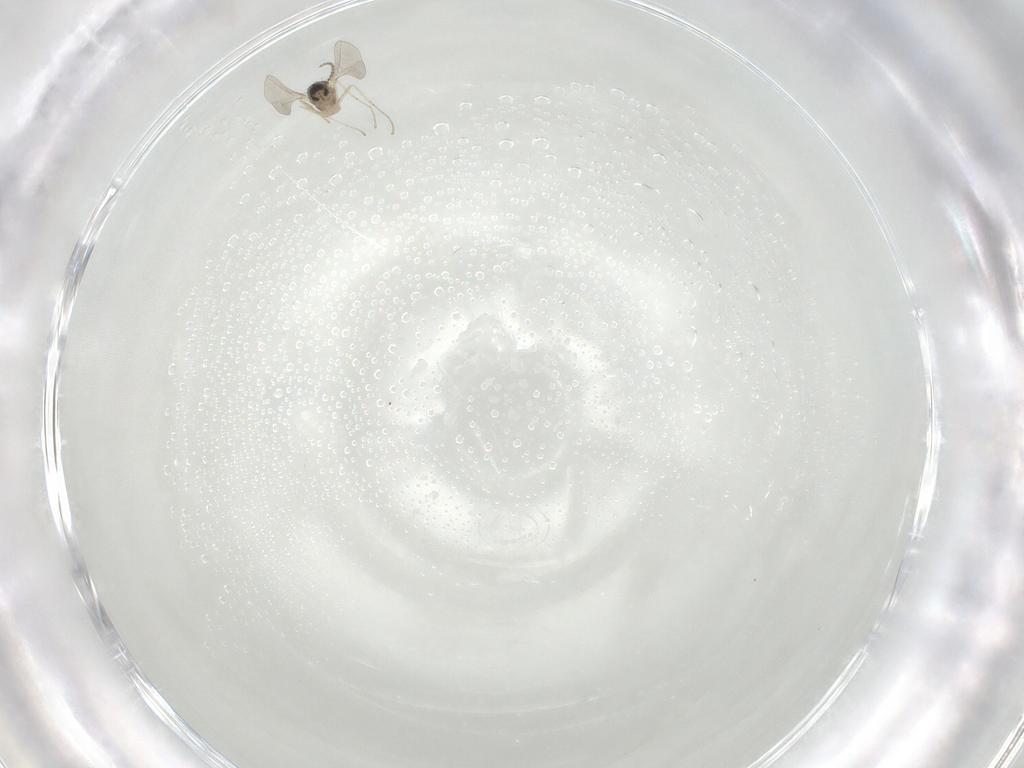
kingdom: Animalia
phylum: Arthropoda
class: Insecta
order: Diptera
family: Cecidomyiidae
